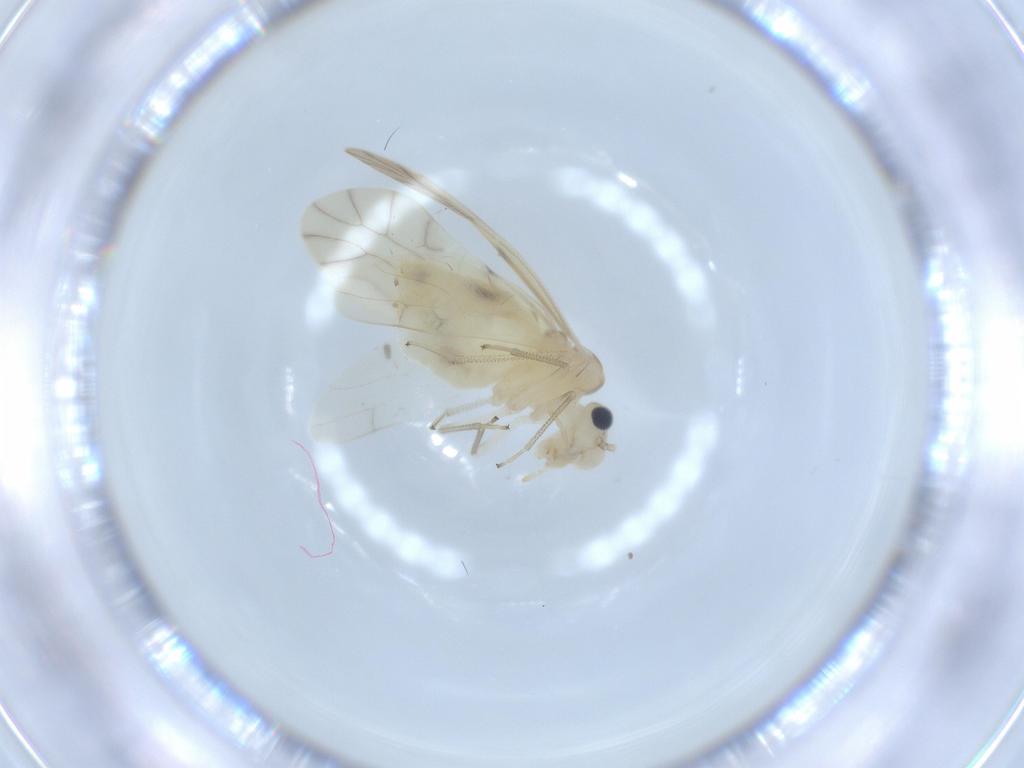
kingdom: Animalia
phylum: Arthropoda
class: Insecta
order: Psocodea
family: Caeciliusidae
